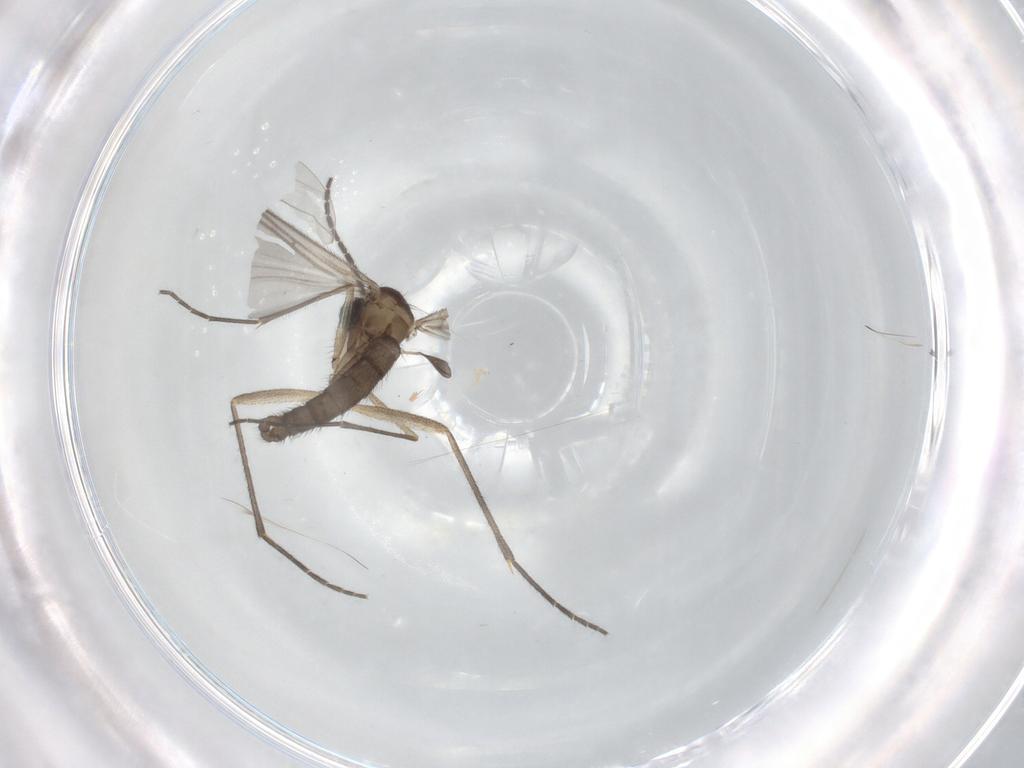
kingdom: Animalia
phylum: Arthropoda
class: Insecta
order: Diptera
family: Sciaridae
